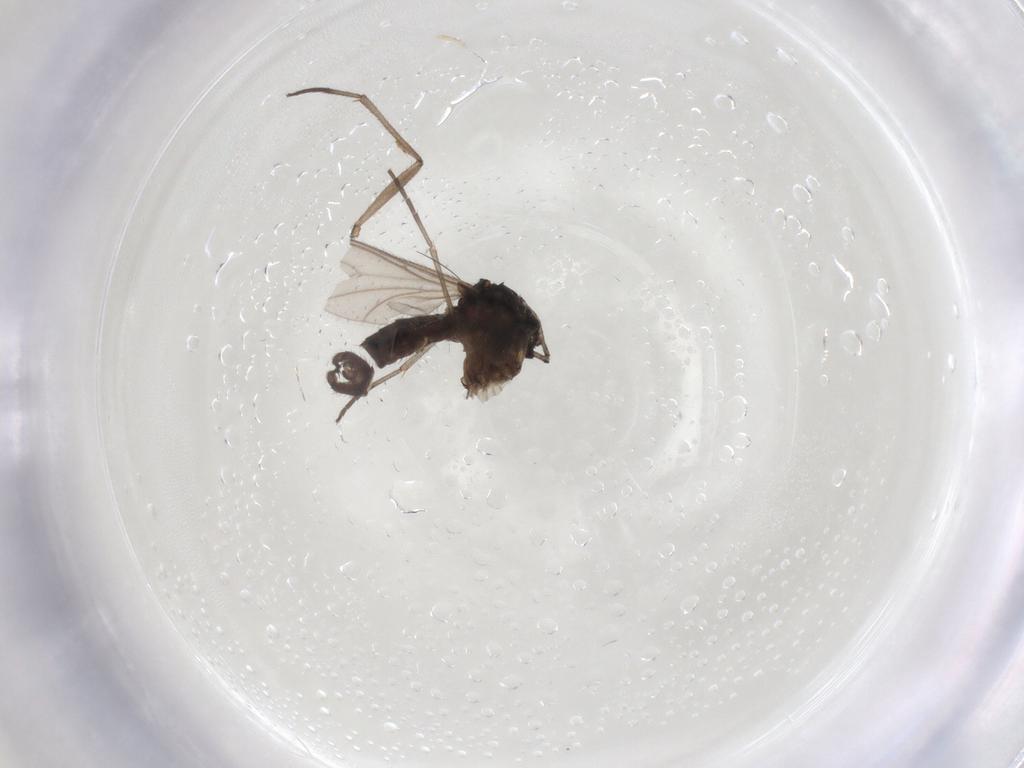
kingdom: Animalia
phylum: Arthropoda
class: Insecta
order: Diptera
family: Sciaridae
